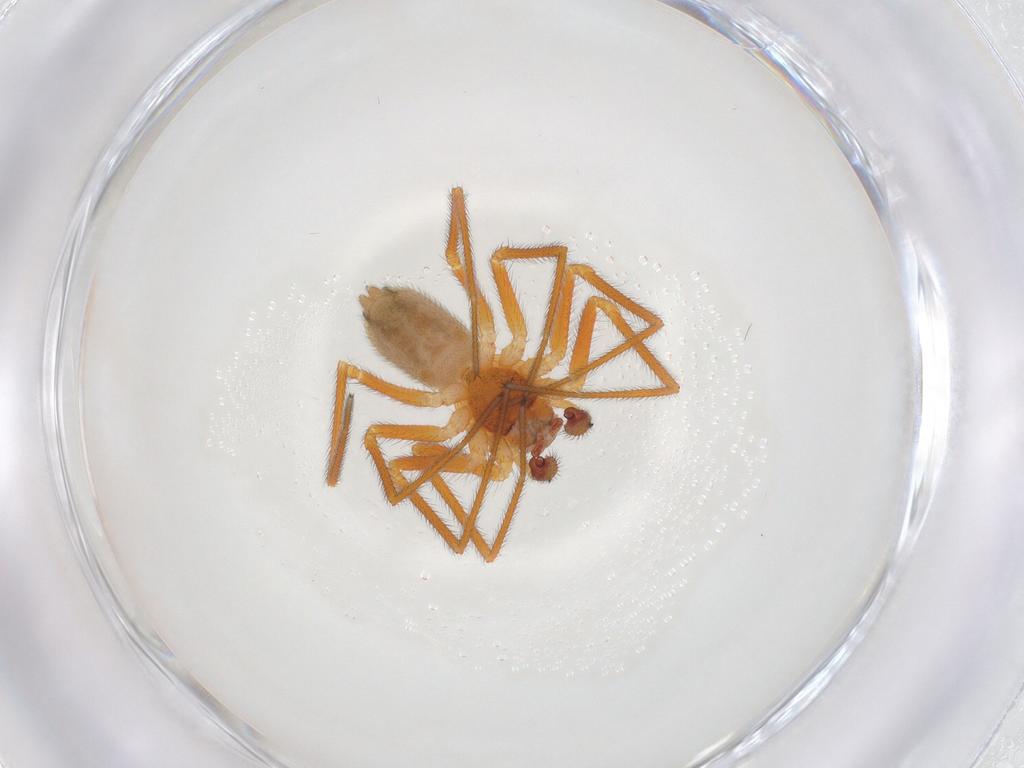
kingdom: Animalia
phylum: Arthropoda
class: Arachnida
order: Araneae
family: Linyphiidae
